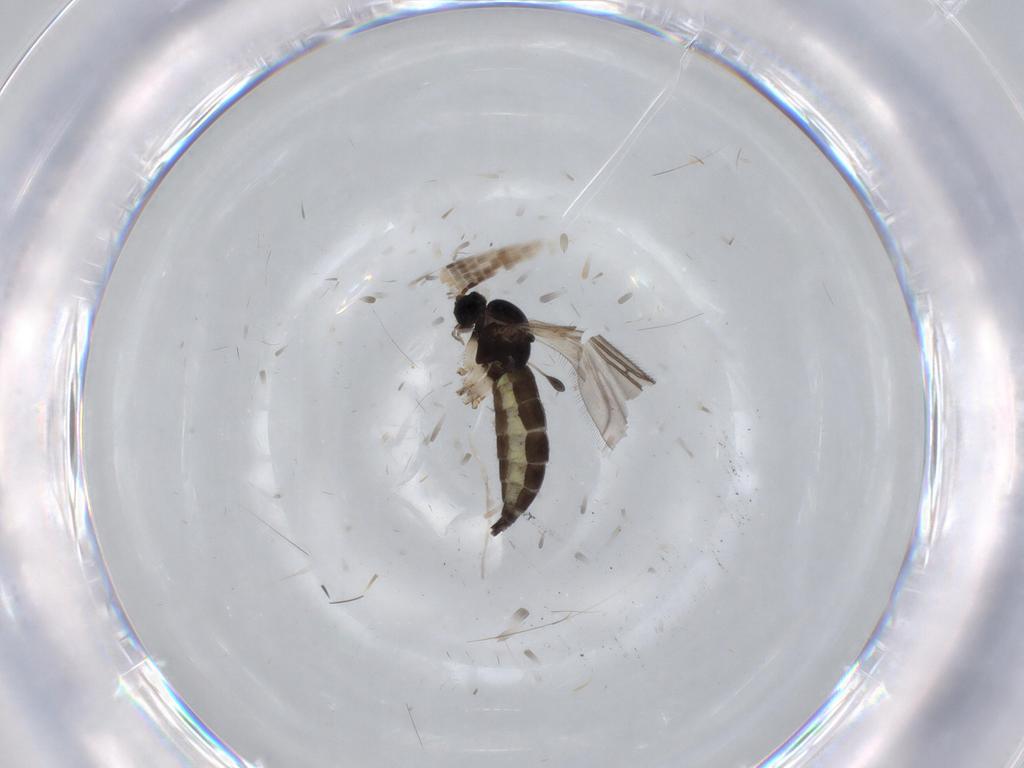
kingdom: Animalia
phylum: Arthropoda
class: Insecta
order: Diptera
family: Sciaridae
